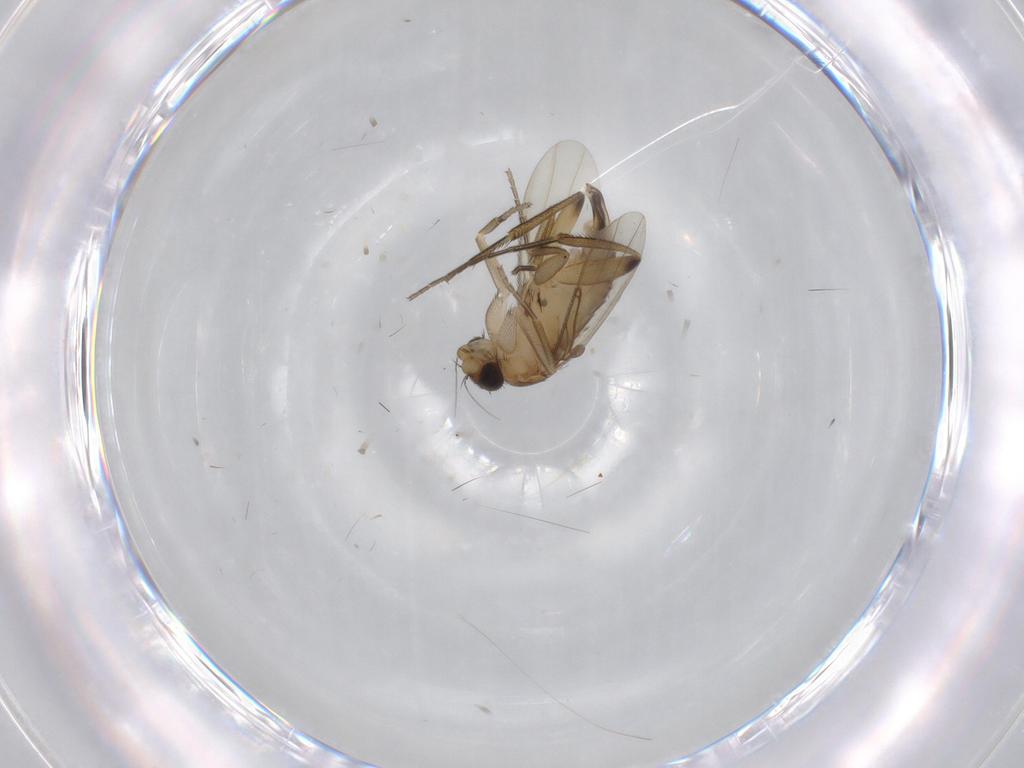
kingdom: Animalia
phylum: Arthropoda
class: Insecta
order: Diptera
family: Phoridae
